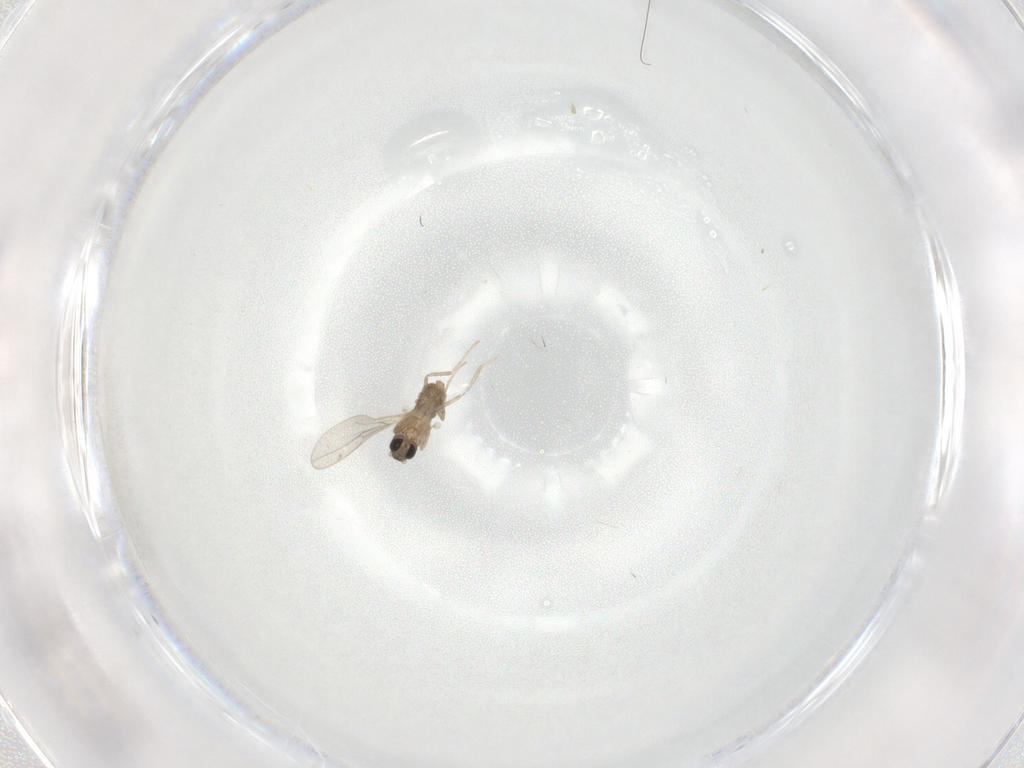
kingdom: Animalia
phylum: Arthropoda
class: Insecta
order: Diptera
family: Cecidomyiidae
